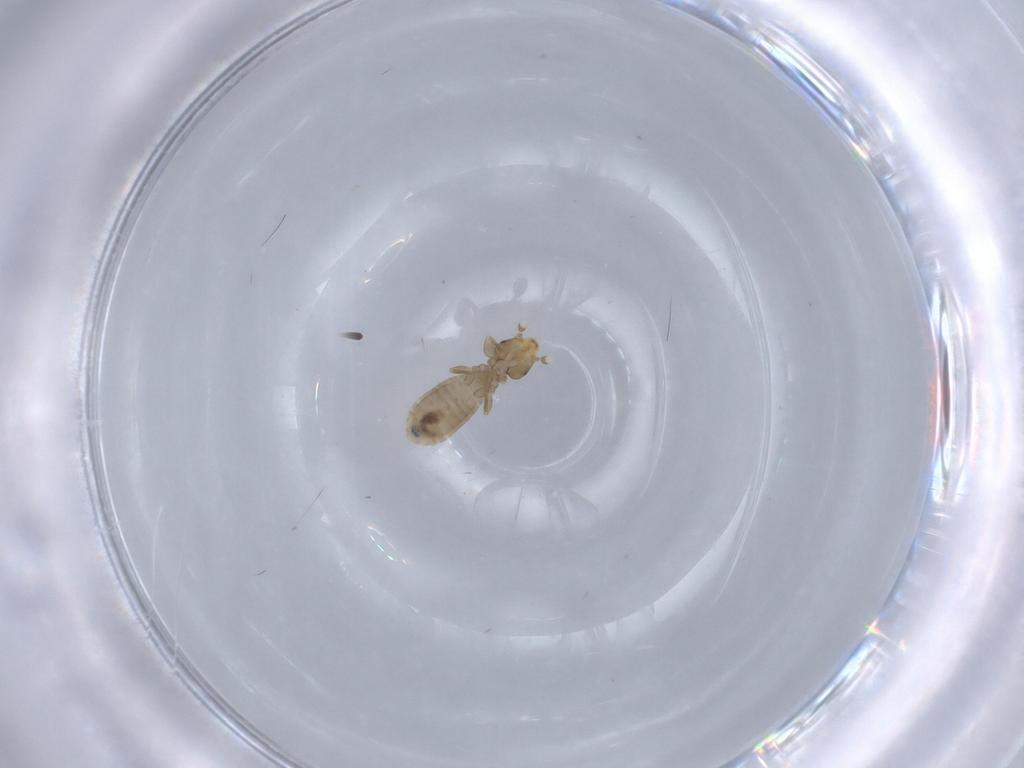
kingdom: Animalia
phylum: Arthropoda
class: Insecta
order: Psocodea
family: Liposcelididae
